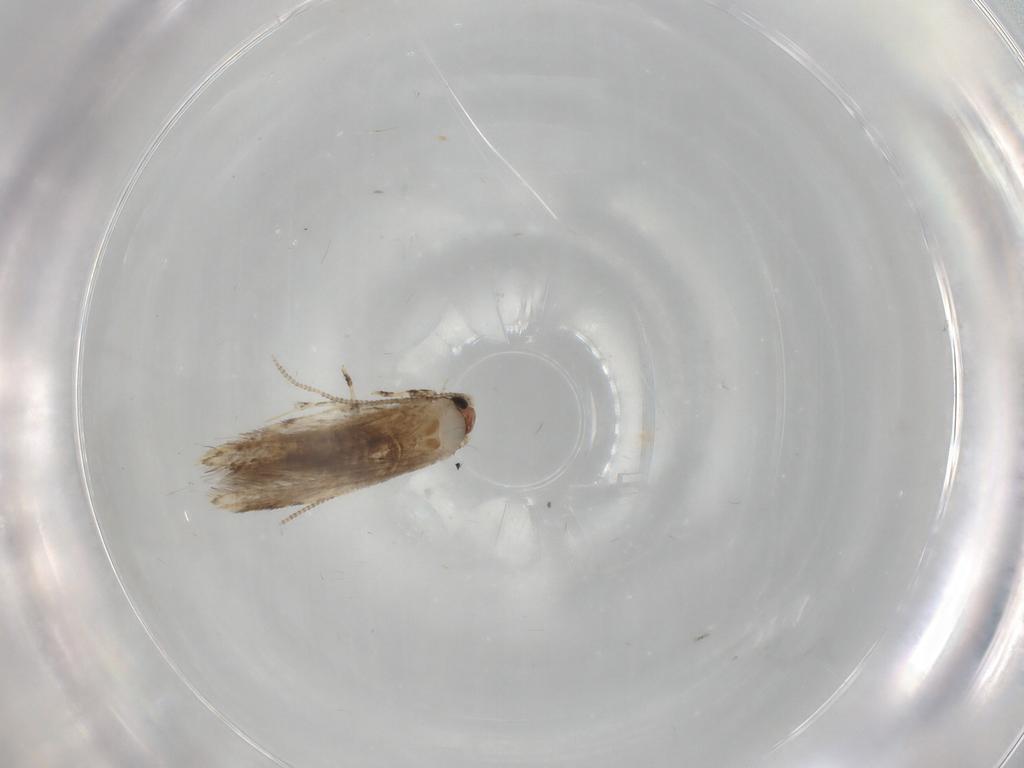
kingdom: Animalia
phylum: Arthropoda
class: Insecta
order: Lepidoptera
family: Tineidae
